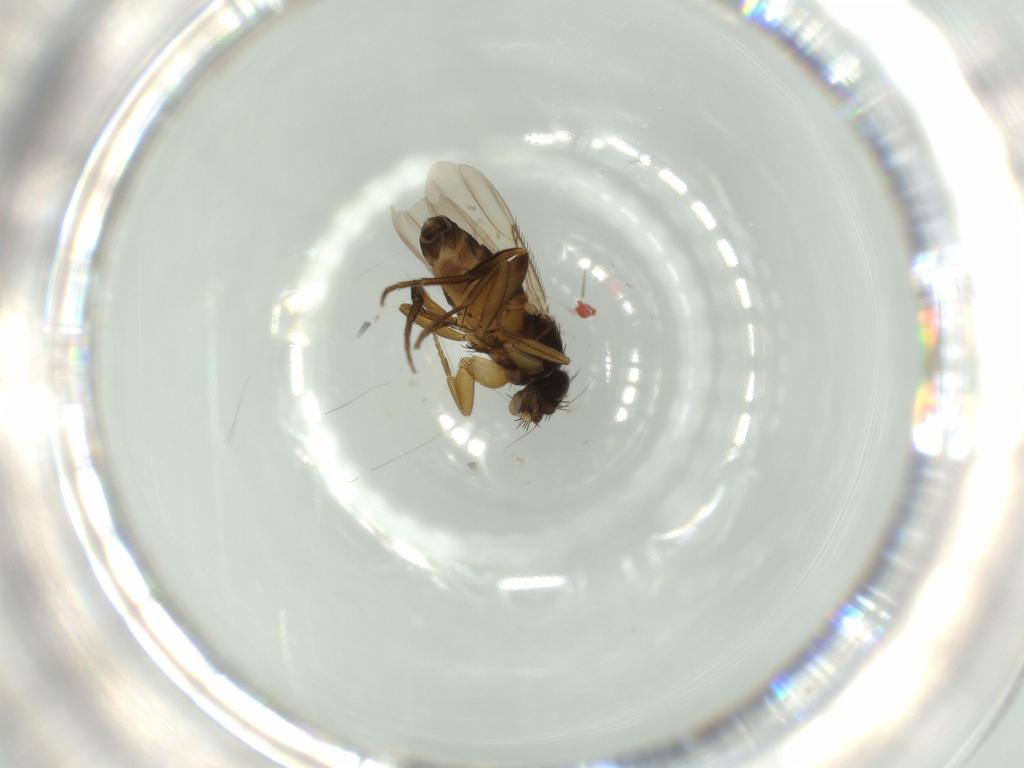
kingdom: Animalia
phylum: Arthropoda
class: Insecta
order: Diptera
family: Phoridae
